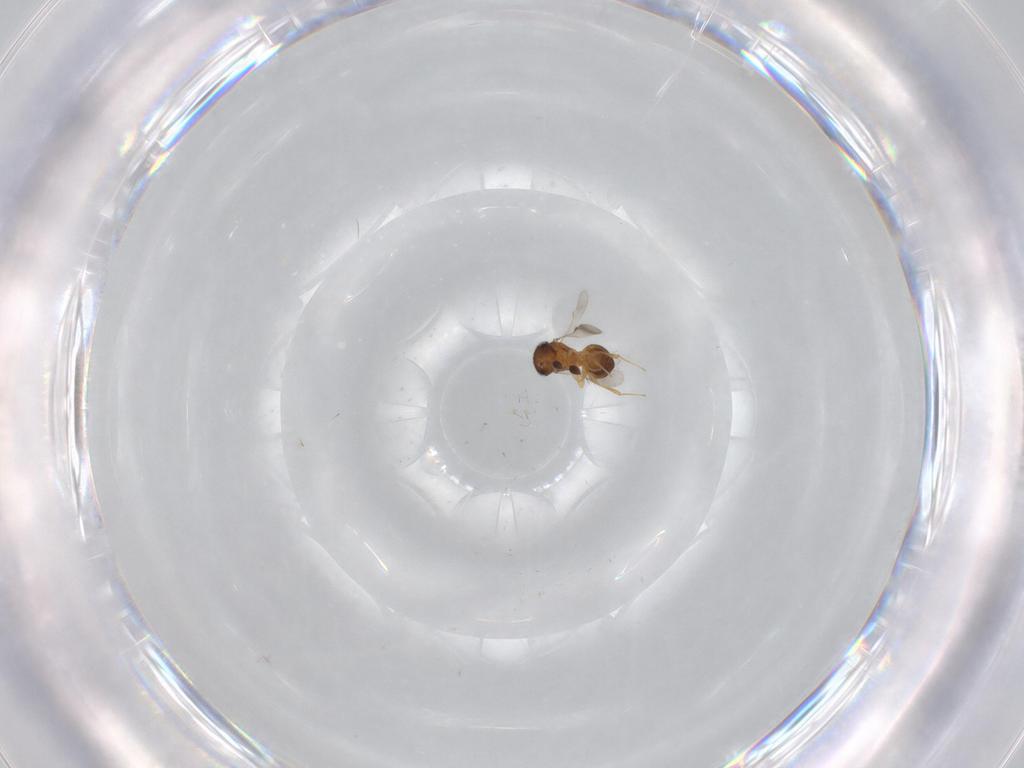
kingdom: Animalia
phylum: Arthropoda
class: Insecta
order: Hymenoptera
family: Scelionidae
